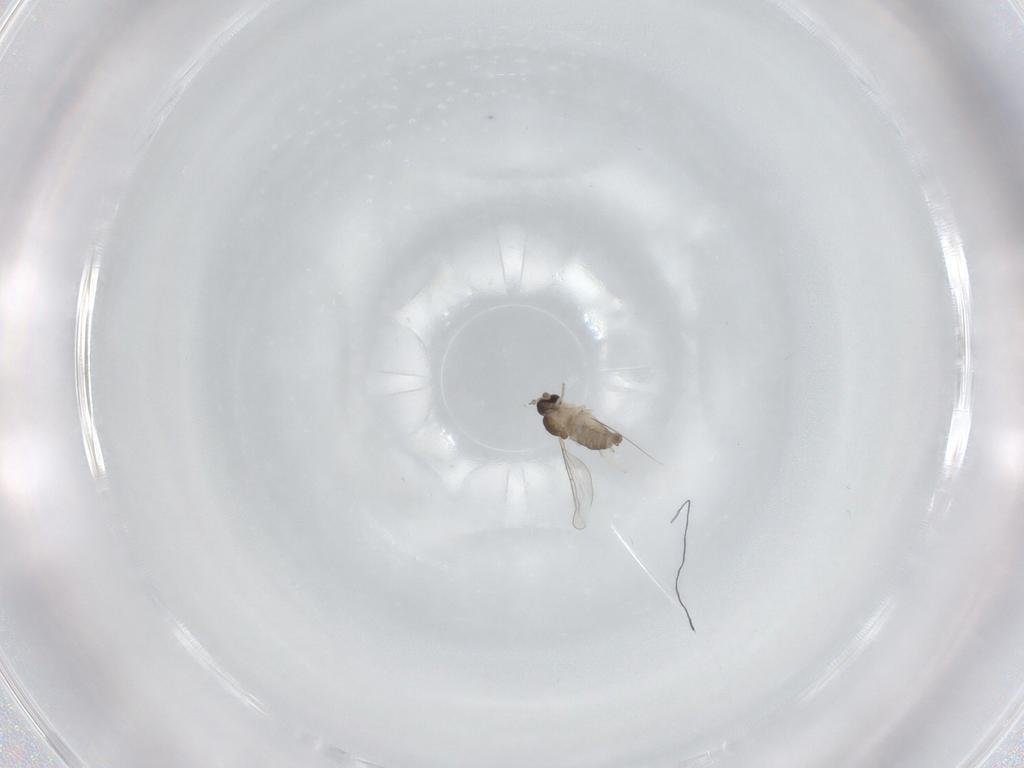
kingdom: Animalia
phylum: Arthropoda
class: Insecta
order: Diptera
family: Cecidomyiidae
